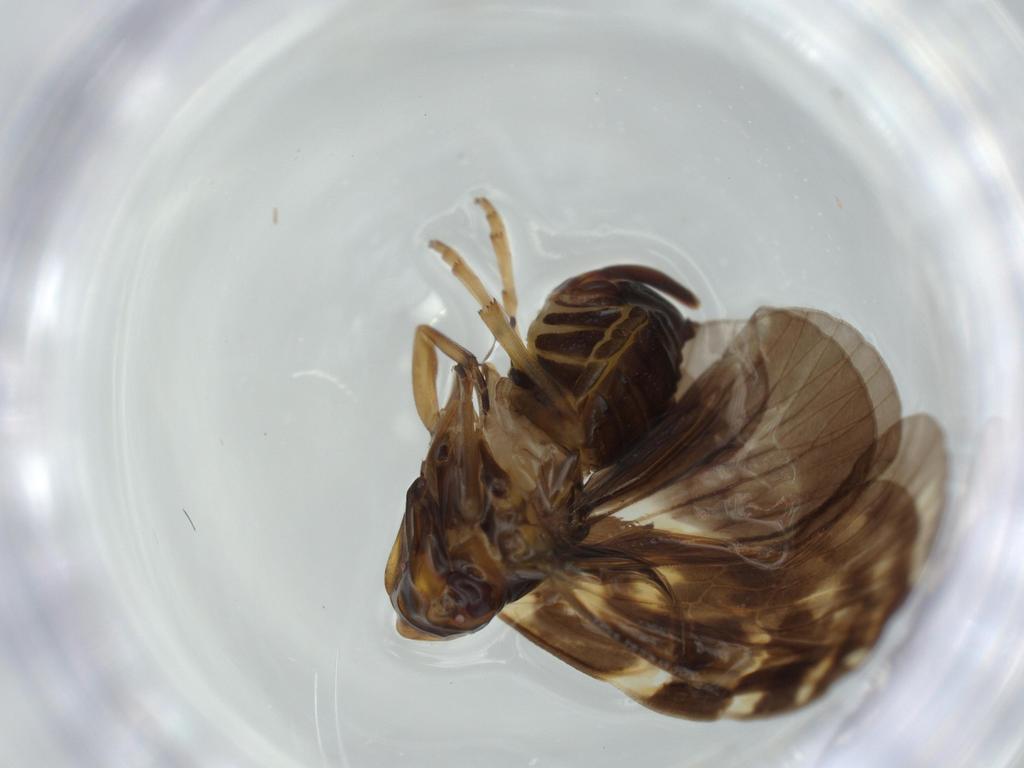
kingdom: Animalia
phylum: Arthropoda
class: Insecta
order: Hemiptera
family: Cixiidae
